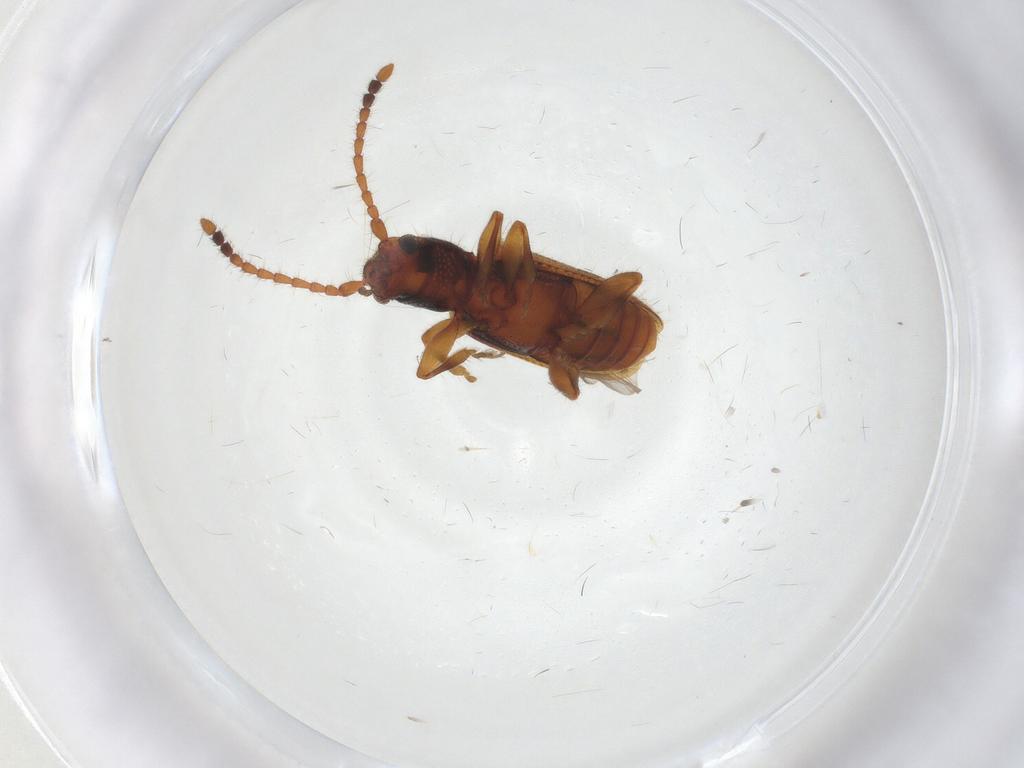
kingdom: Animalia
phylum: Arthropoda
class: Insecta
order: Coleoptera
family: Staphylinidae
